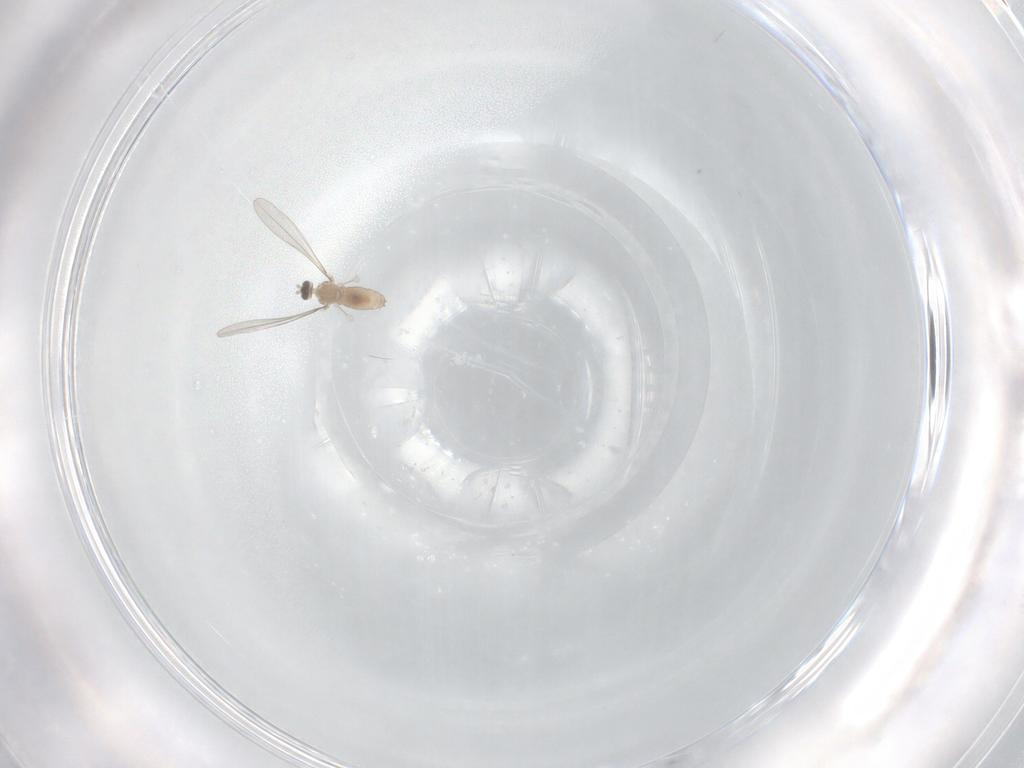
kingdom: Animalia
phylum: Arthropoda
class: Insecta
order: Diptera
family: Cecidomyiidae
